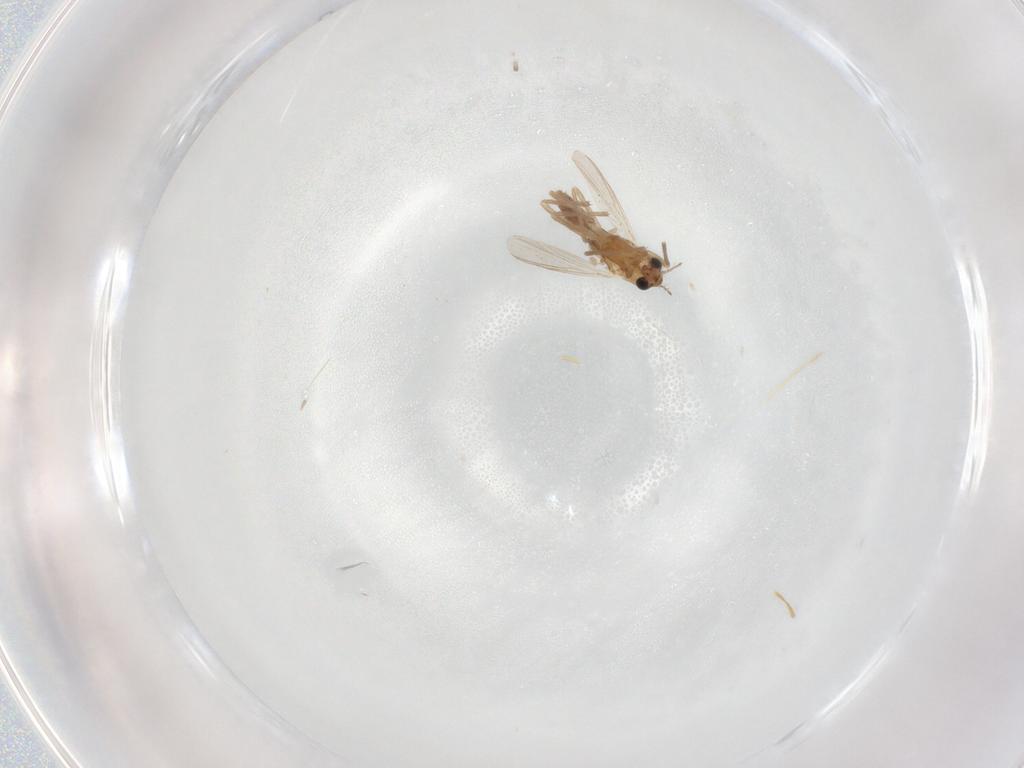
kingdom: Animalia
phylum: Arthropoda
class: Insecta
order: Diptera
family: Chironomidae
